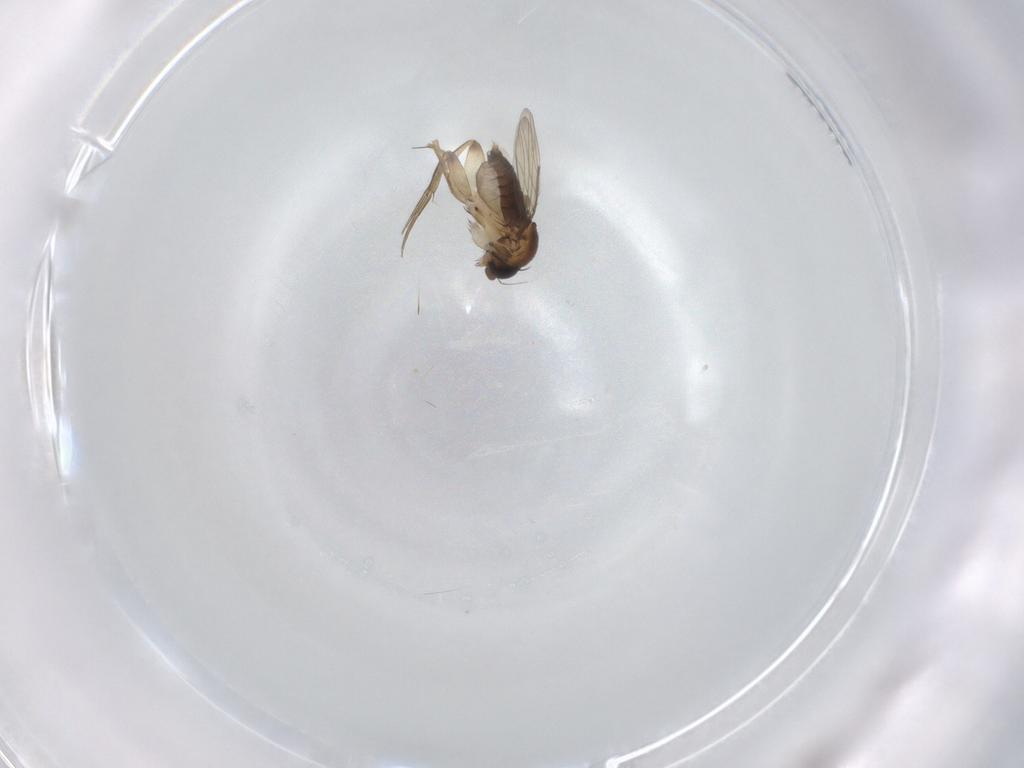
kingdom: Animalia
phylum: Arthropoda
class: Insecta
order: Diptera
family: Phoridae
